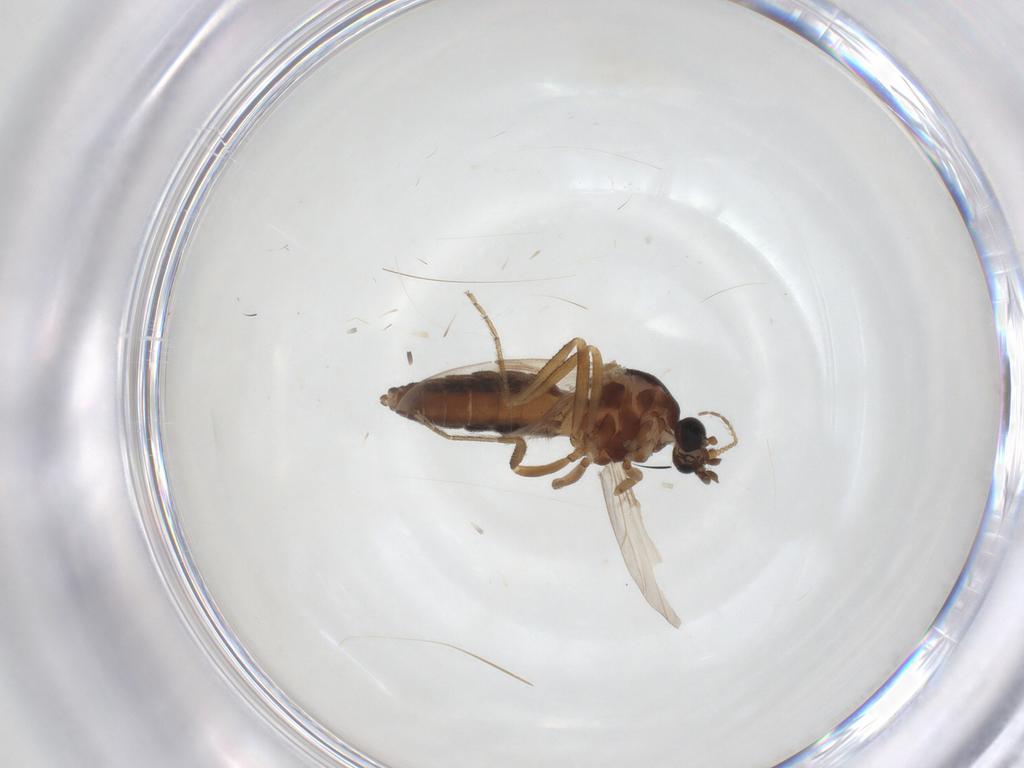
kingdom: Animalia
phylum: Arthropoda
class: Insecta
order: Diptera
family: Ceratopogonidae
